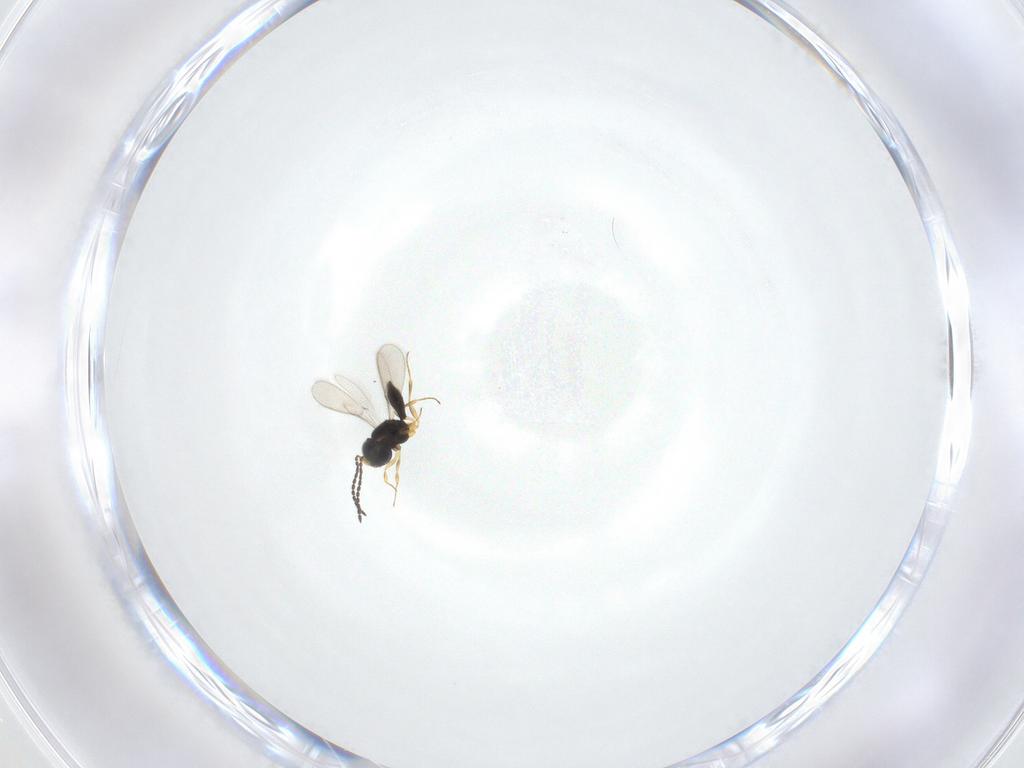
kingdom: Animalia
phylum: Arthropoda
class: Insecta
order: Hymenoptera
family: Scelionidae
